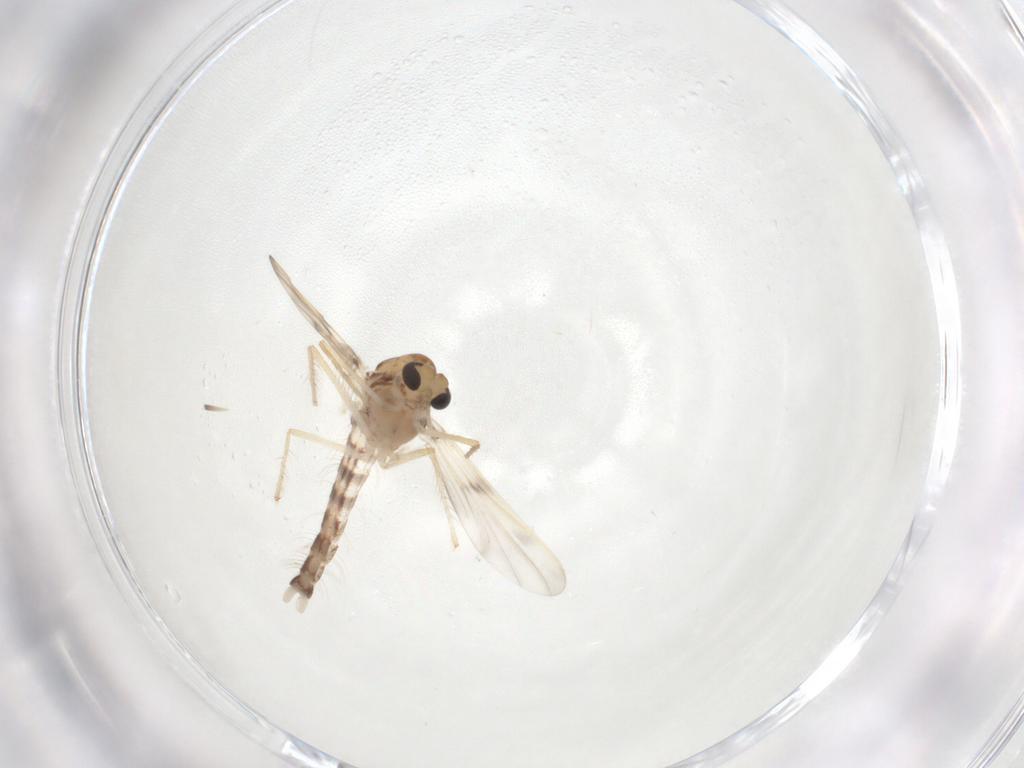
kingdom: Animalia
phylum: Arthropoda
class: Insecta
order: Diptera
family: Chironomidae
